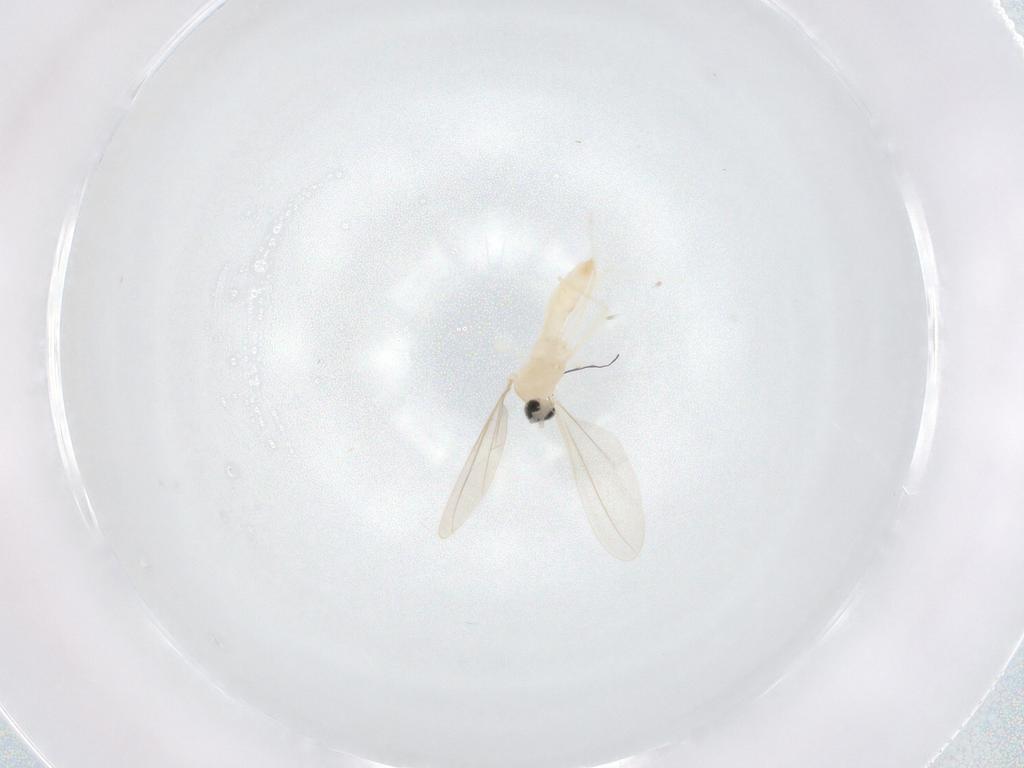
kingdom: Animalia
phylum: Arthropoda
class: Insecta
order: Diptera
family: Cecidomyiidae
